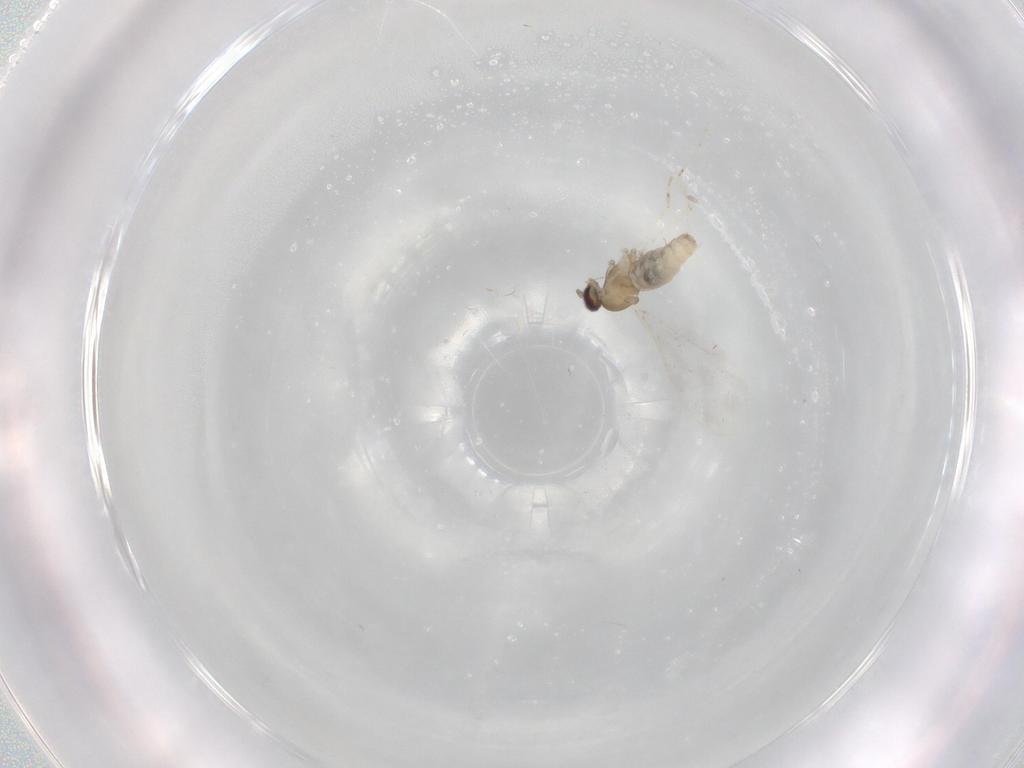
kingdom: Animalia
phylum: Arthropoda
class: Insecta
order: Diptera
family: Cecidomyiidae
